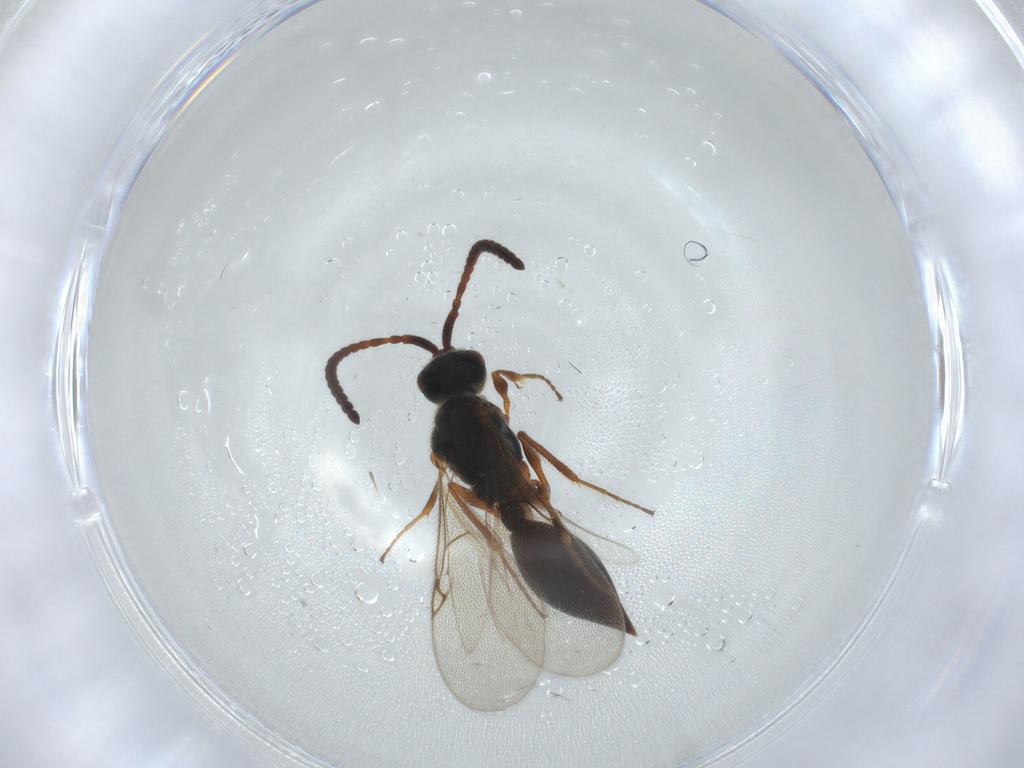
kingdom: Animalia
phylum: Arthropoda
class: Insecta
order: Hymenoptera
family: Diapriidae
